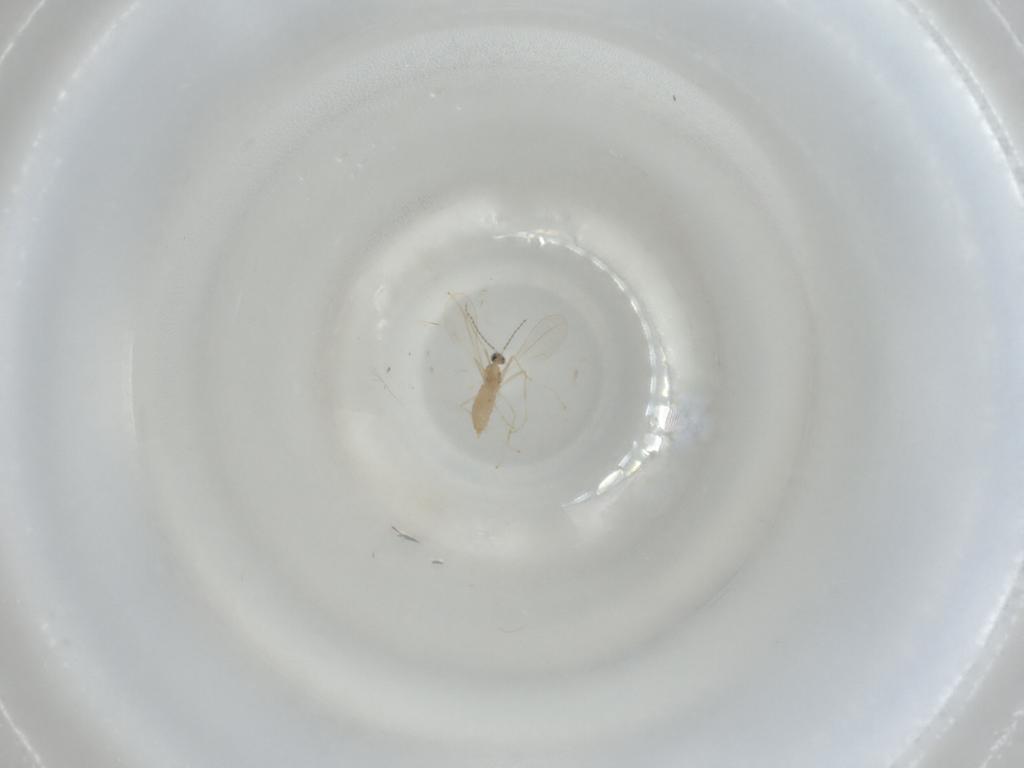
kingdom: Animalia
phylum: Arthropoda
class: Insecta
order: Diptera
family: Cecidomyiidae
